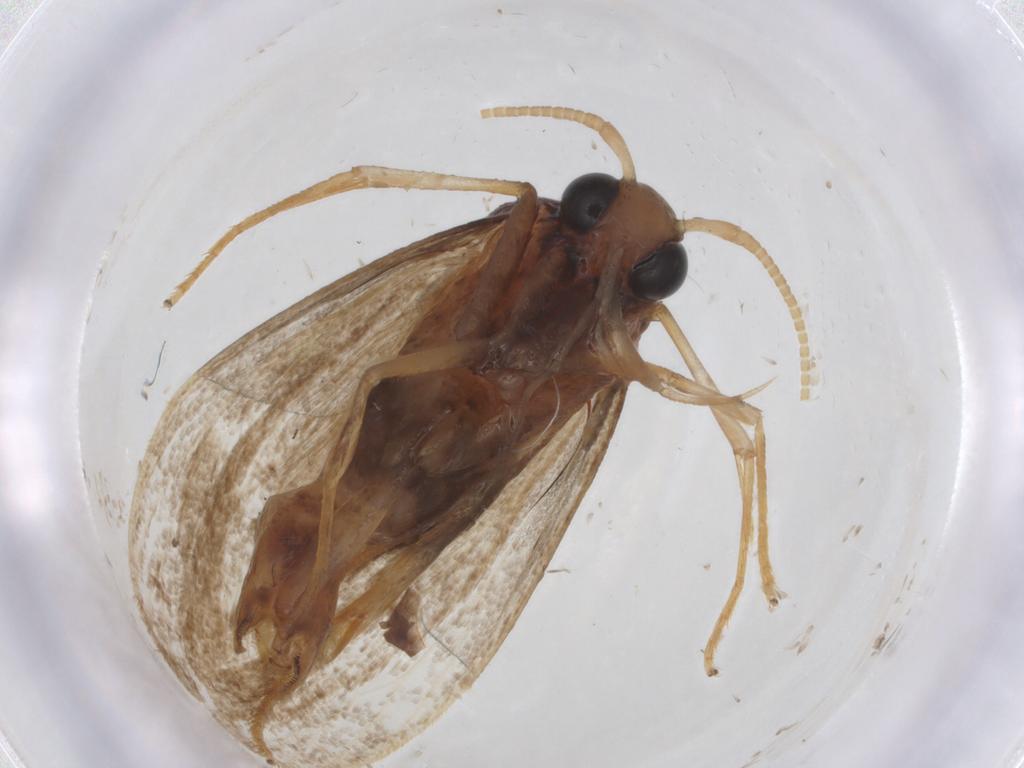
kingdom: Animalia
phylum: Arthropoda
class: Insecta
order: Lepidoptera
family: Lecithoceridae
